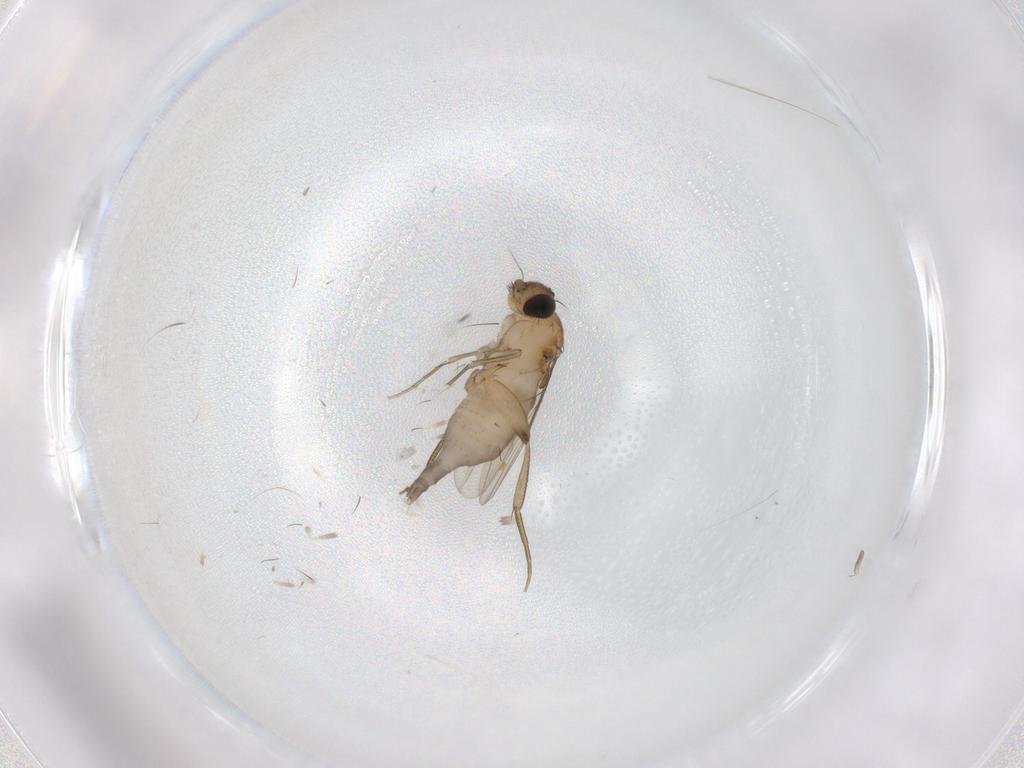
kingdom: Animalia
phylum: Arthropoda
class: Insecta
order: Diptera
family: Phoridae
